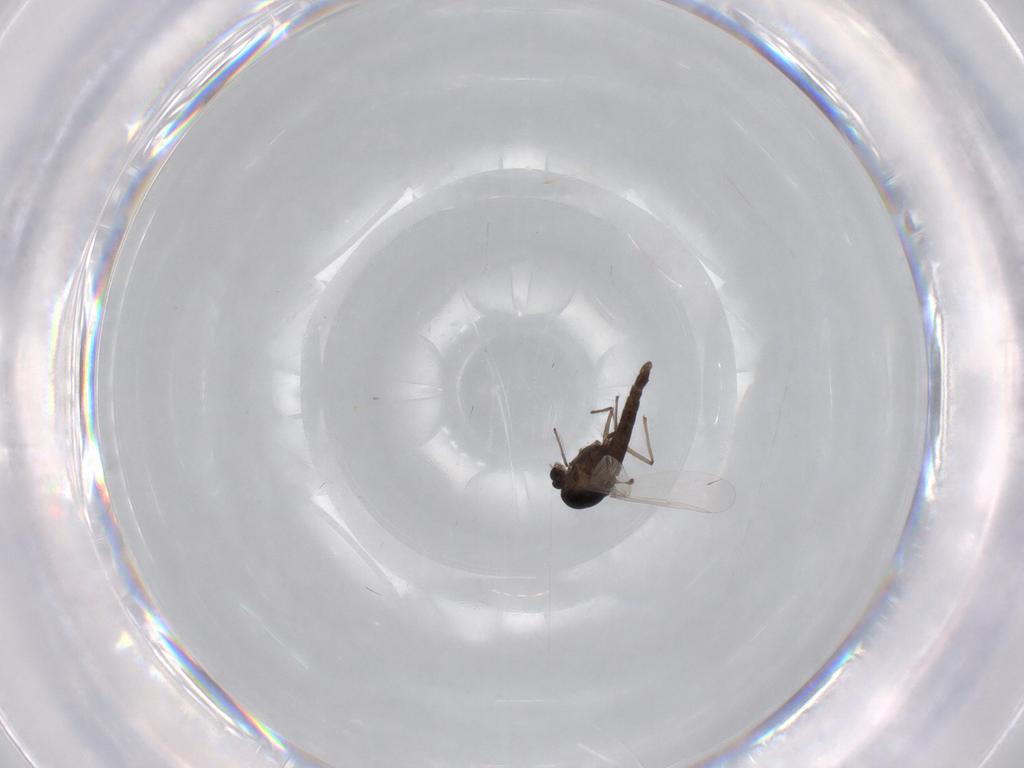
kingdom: Animalia
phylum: Arthropoda
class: Insecta
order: Diptera
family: Chironomidae
